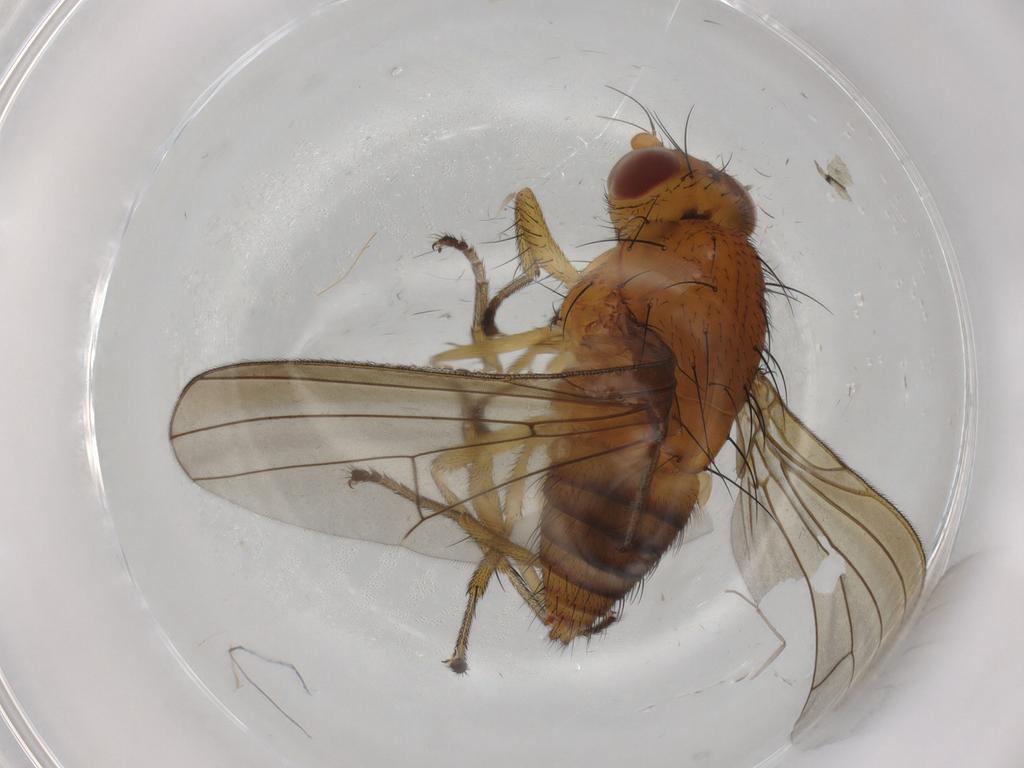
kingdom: Animalia
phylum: Arthropoda
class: Insecta
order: Diptera
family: Lauxaniidae
